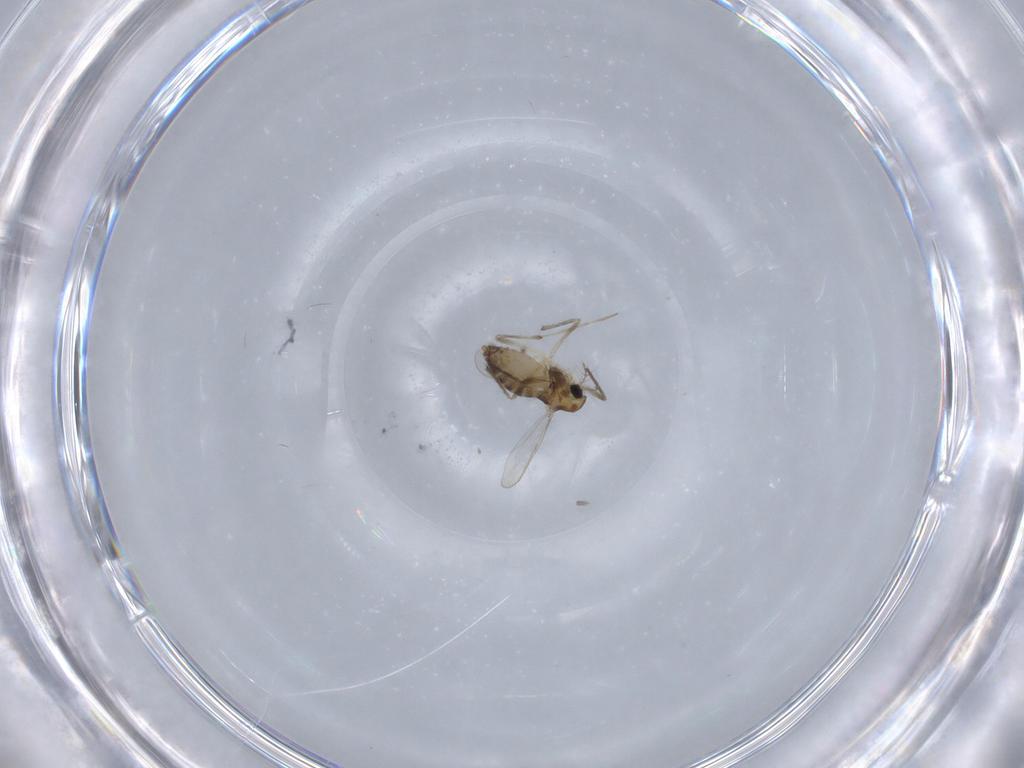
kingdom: Animalia
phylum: Arthropoda
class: Insecta
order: Diptera
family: Chironomidae
